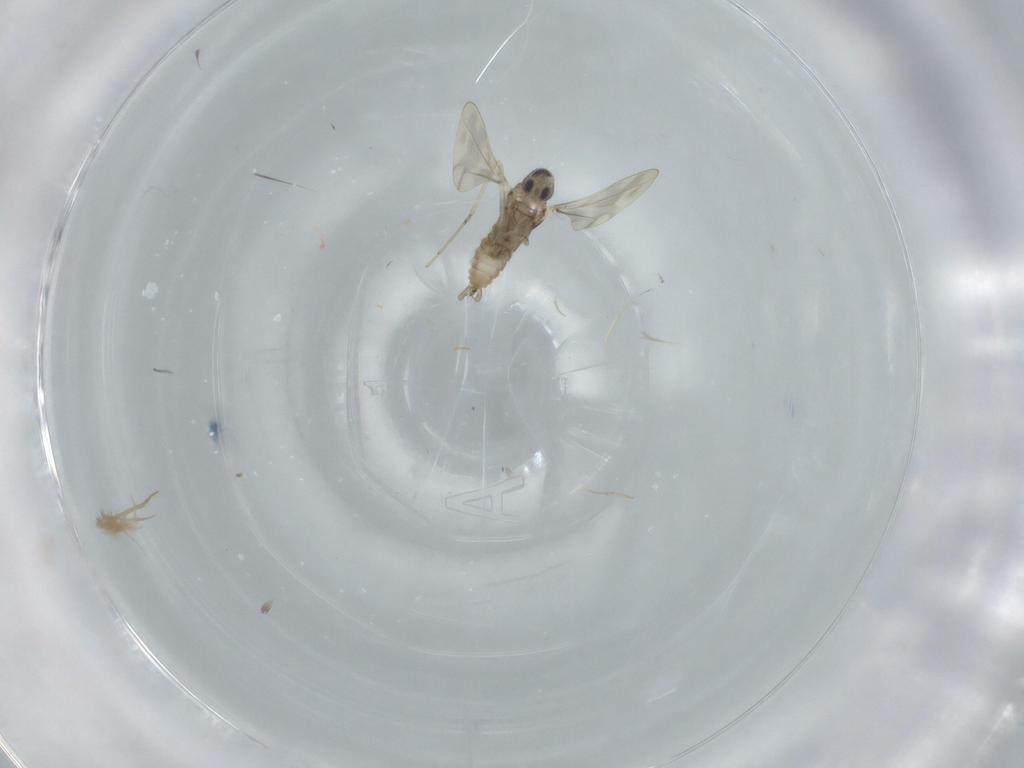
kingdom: Animalia
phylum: Arthropoda
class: Insecta
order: Diptera
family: Cecidomyiidae
